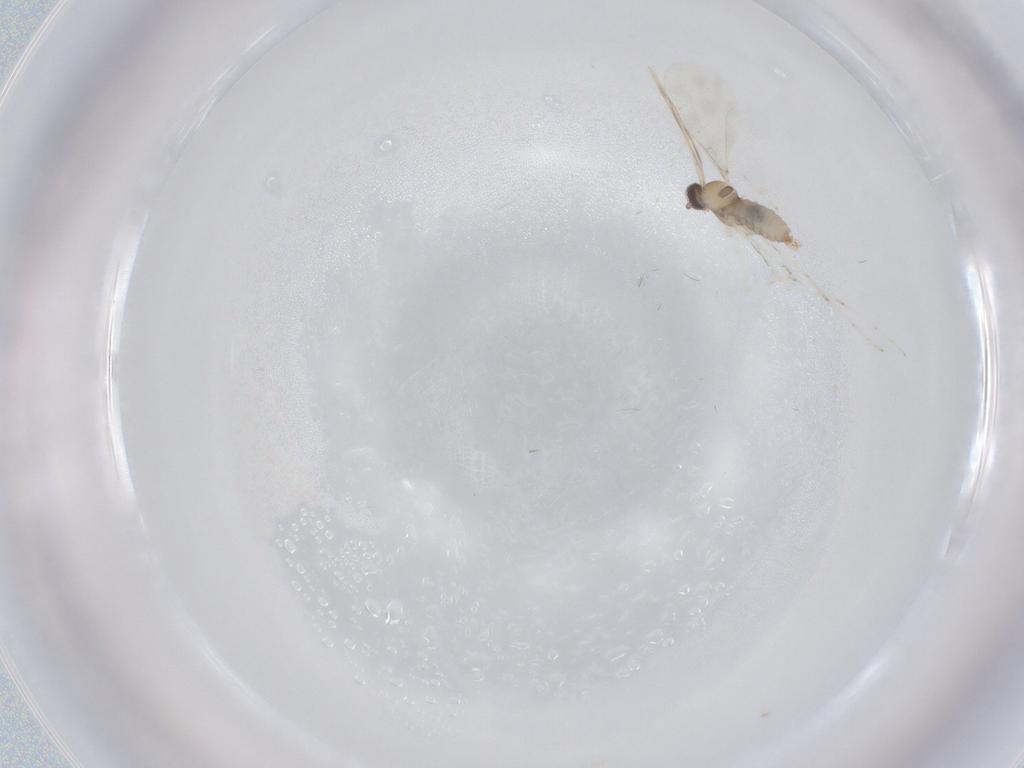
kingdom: Animalia
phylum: Arthropoda
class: Insecta
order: Diptera
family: Cecidomyiidae
